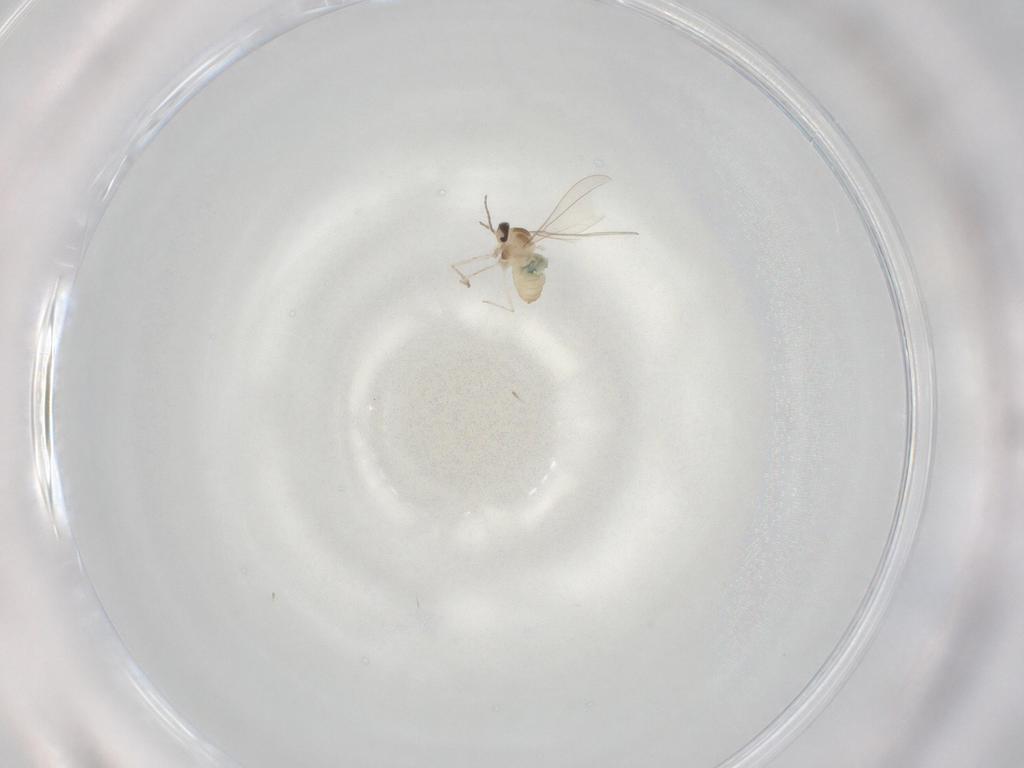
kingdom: Animalia
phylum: Arthropoda
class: Insecta
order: Diptera
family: Cecidomyiidae
